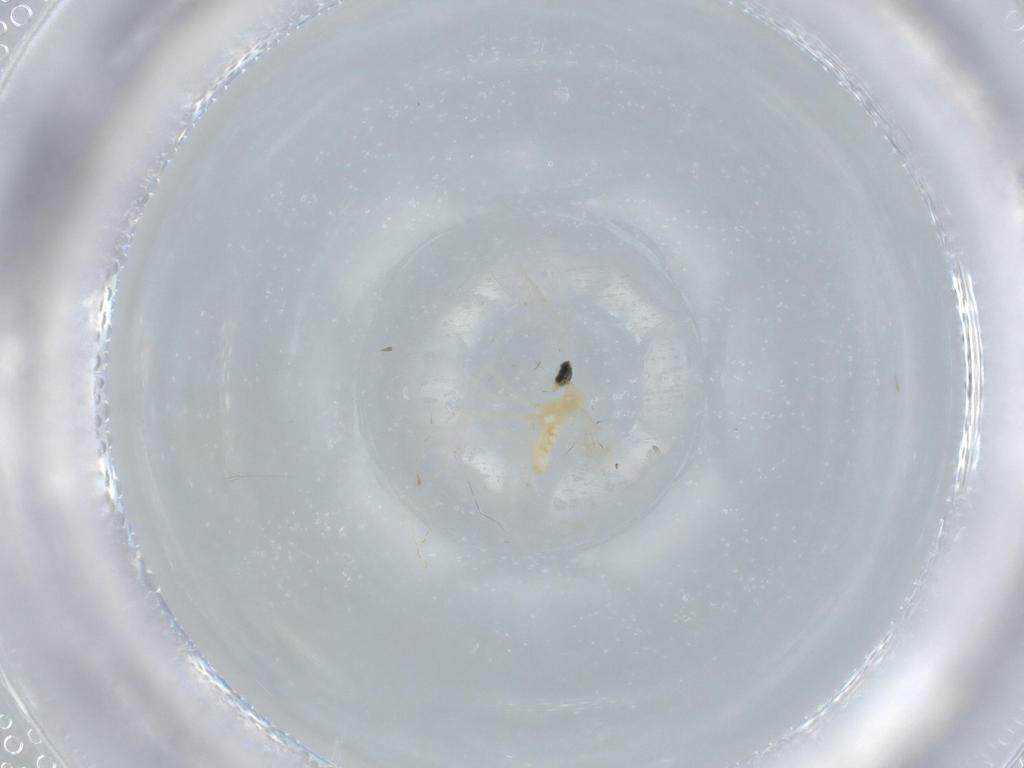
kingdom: Animalia
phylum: Arthropoda
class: Insecta
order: Diptera
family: Cecidomyiidae
